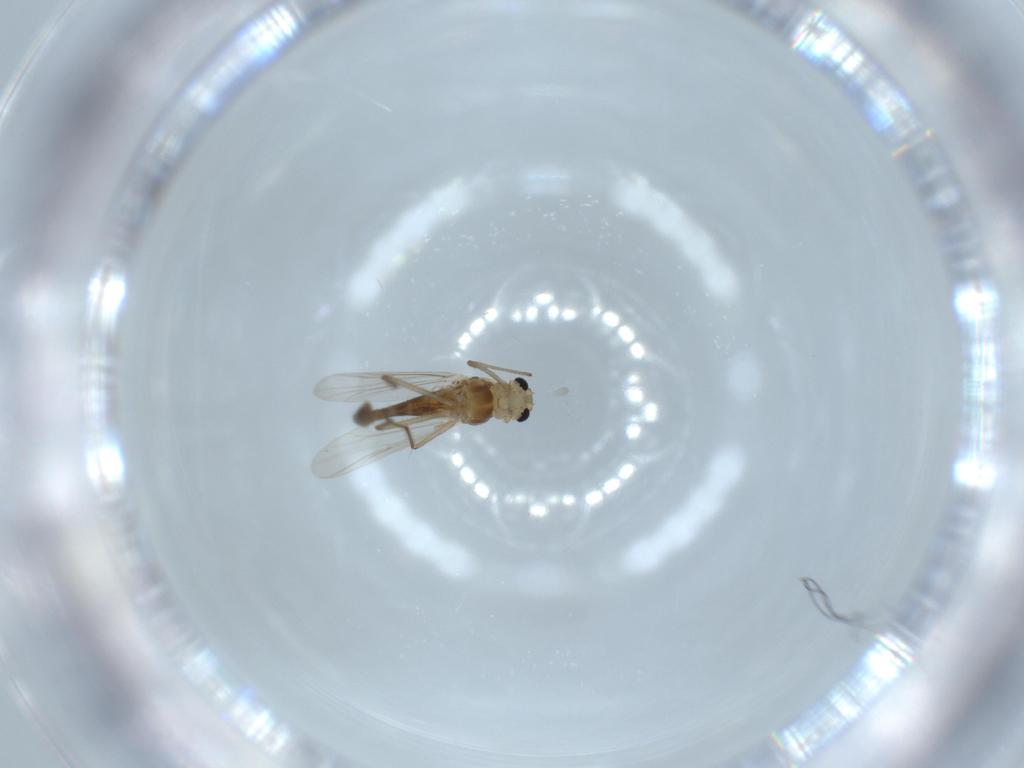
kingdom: Animalia
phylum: Arthropoda
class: Insecta
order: Diptera
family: Chironomidae
